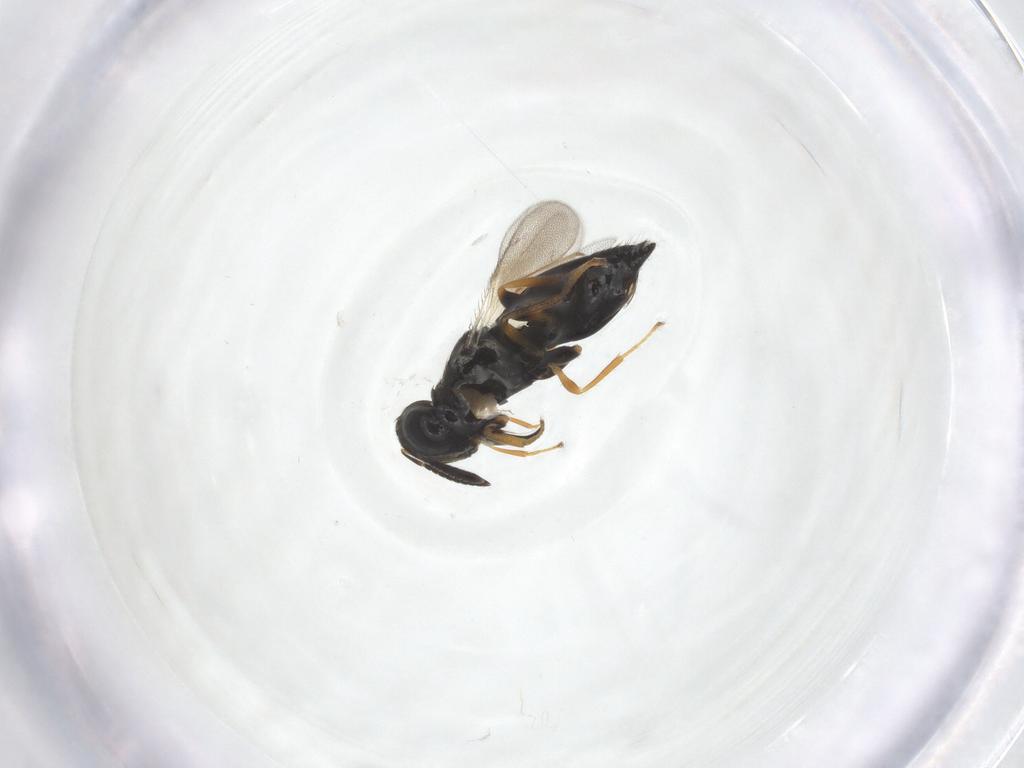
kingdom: Animalia
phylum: Arthropoda
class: Insecta
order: Hymenoptera
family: Pteromalidae
